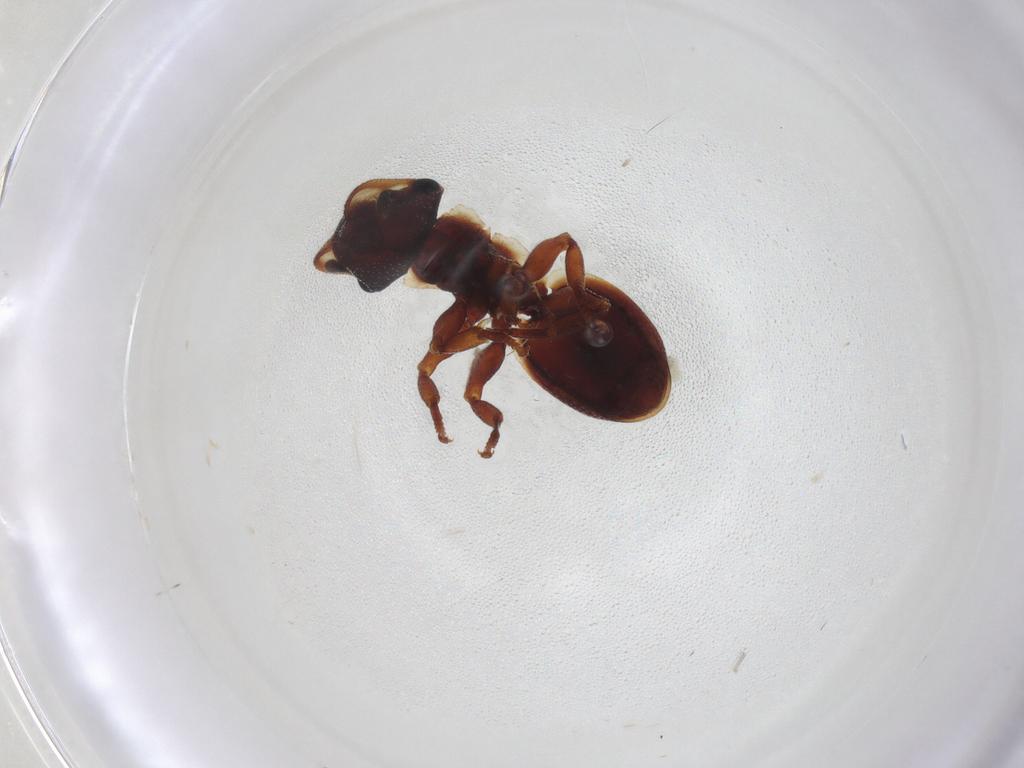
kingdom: Animalia
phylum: Arthropoda
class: Insecta
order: Hymenoptera
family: Formicidae
